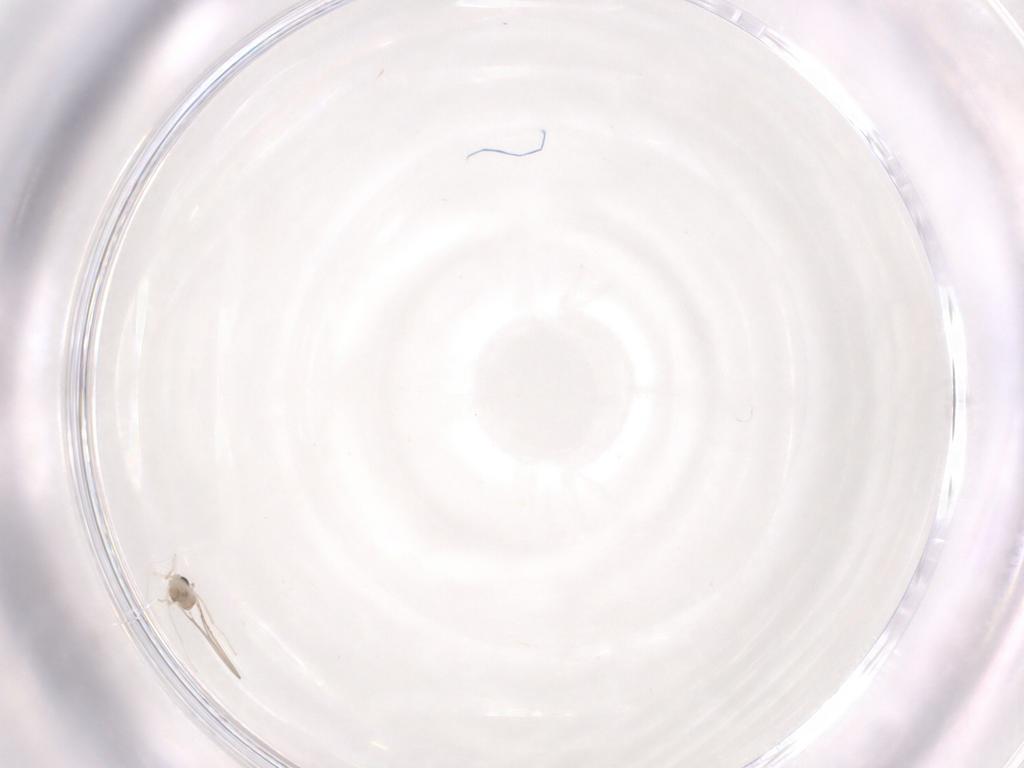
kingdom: Animalia
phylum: Arthropoda
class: Insecta
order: Diptera
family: Cecidomyiidae
